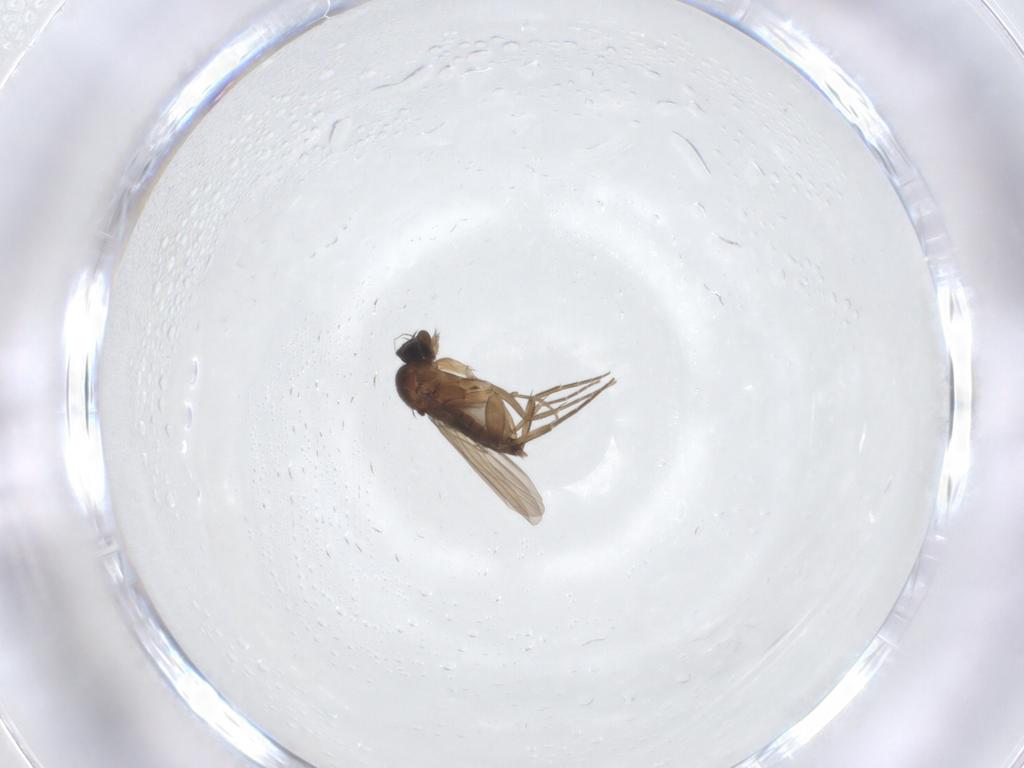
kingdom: Animalia
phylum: Arthropoda
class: Insecta
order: Diptera
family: Phoridae
